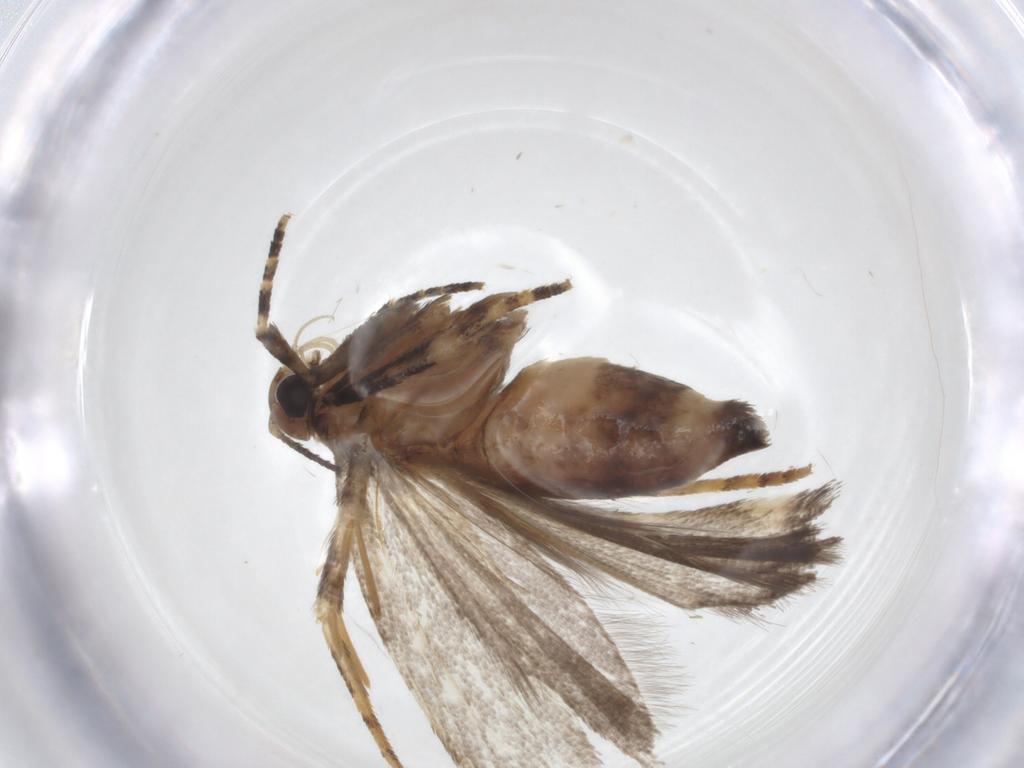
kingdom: Animalia
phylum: Arthropoda
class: Insecta
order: Lepidoptera
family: Gelechiidae
